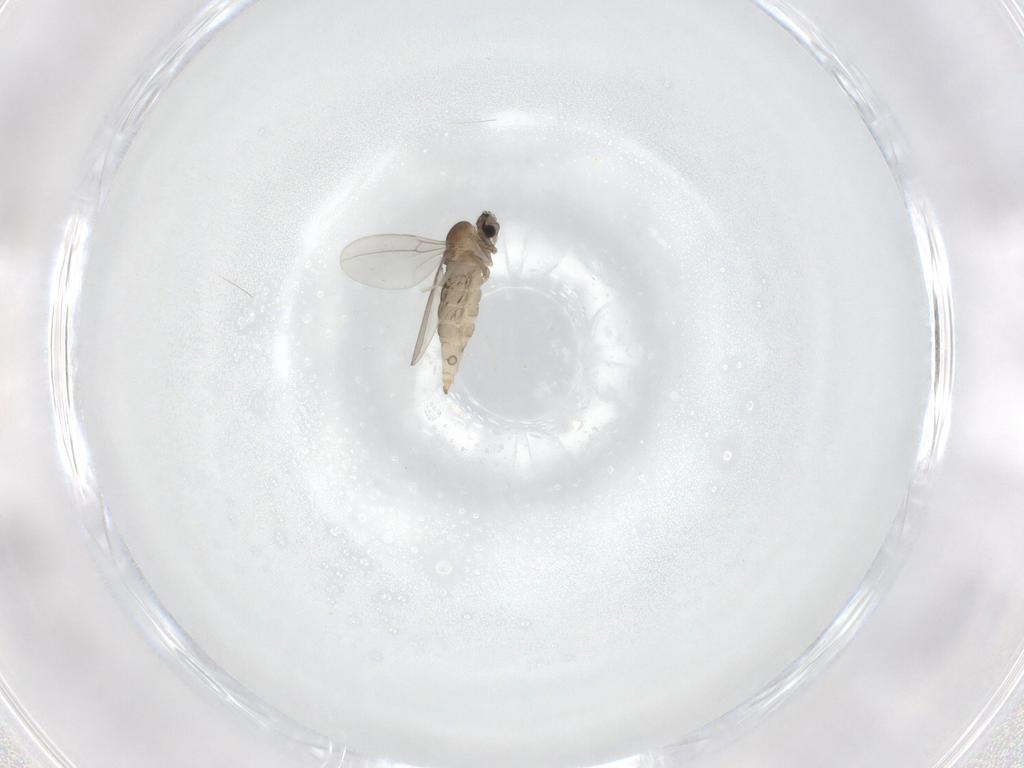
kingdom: Animalia
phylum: Arthropoda
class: Insecta
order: Diptera
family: Cecidomyiidae
